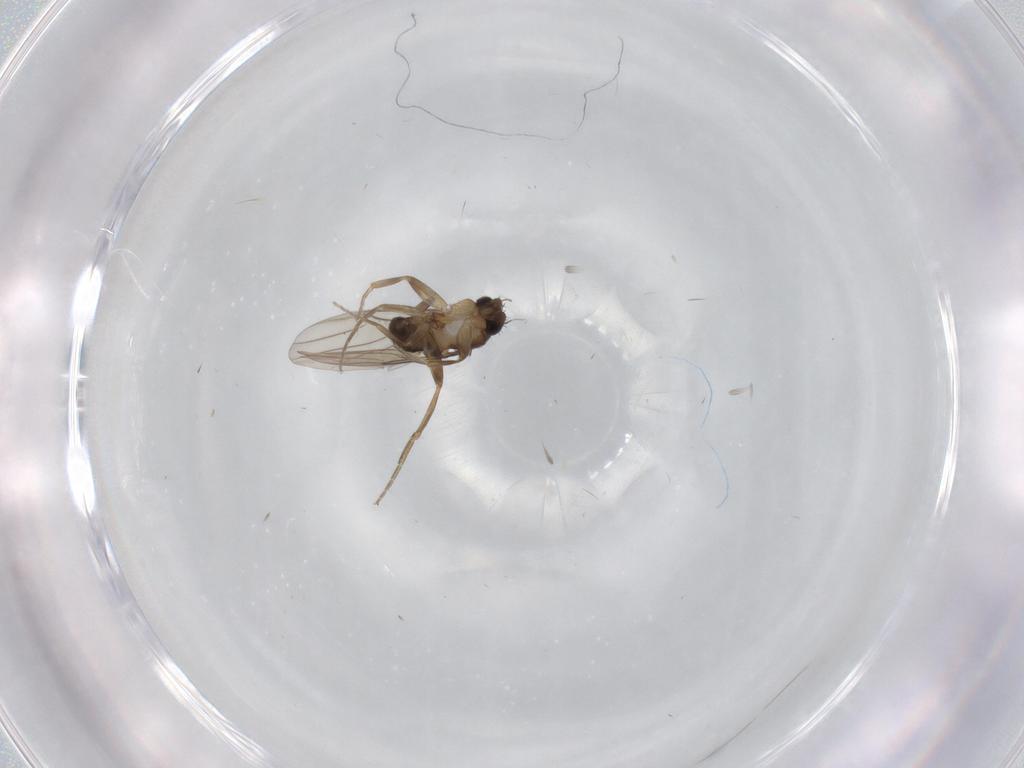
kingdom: Animalia
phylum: Arthropoda
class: Insecta
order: Diptera
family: Phoridae
